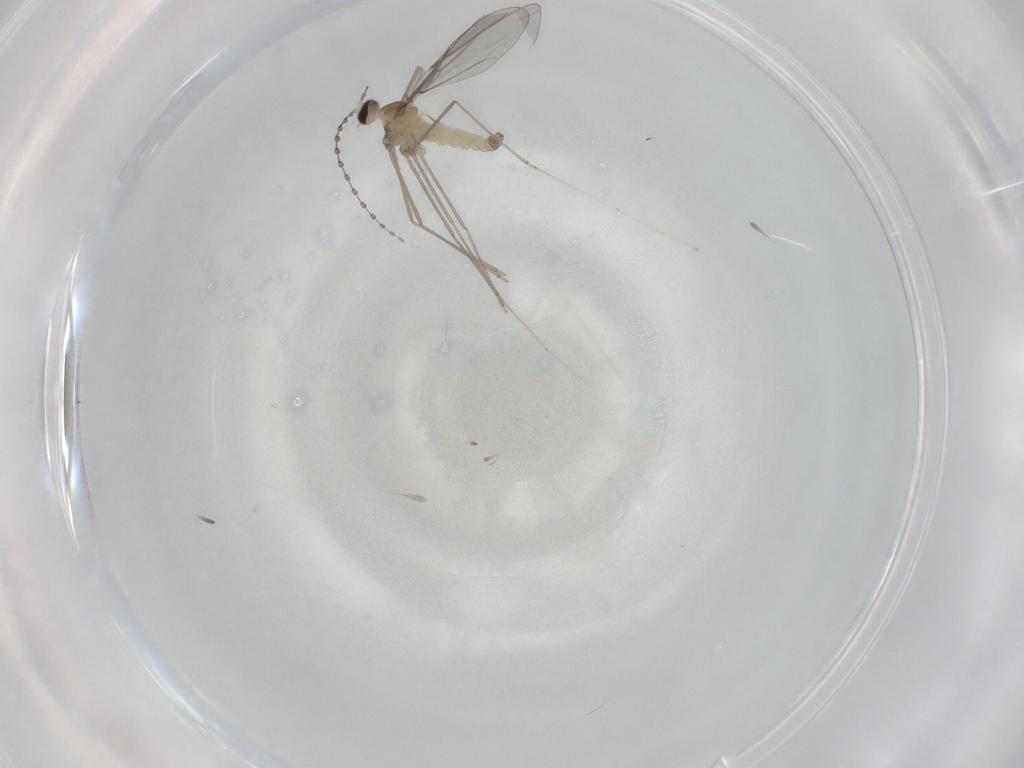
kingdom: Animalia
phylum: Arthropoda
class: Insecta
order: Diptera
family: Cecidomyiidae
